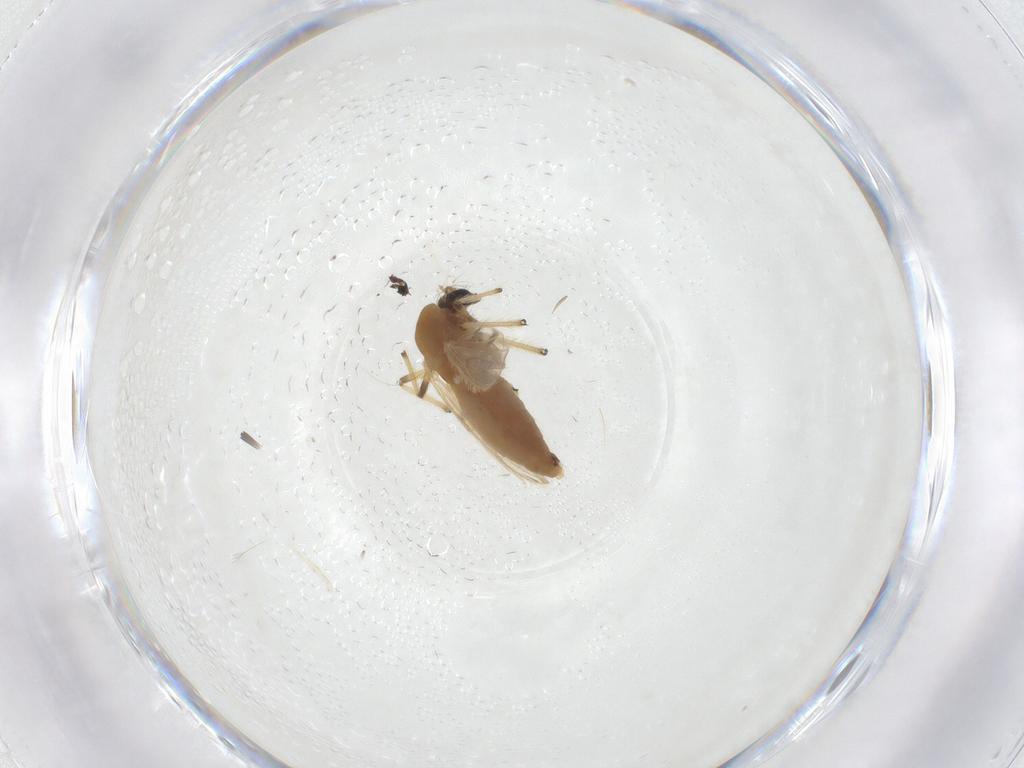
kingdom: Animalia
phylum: Arthropoda
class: Insecta
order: Diptera
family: Chironomidae
